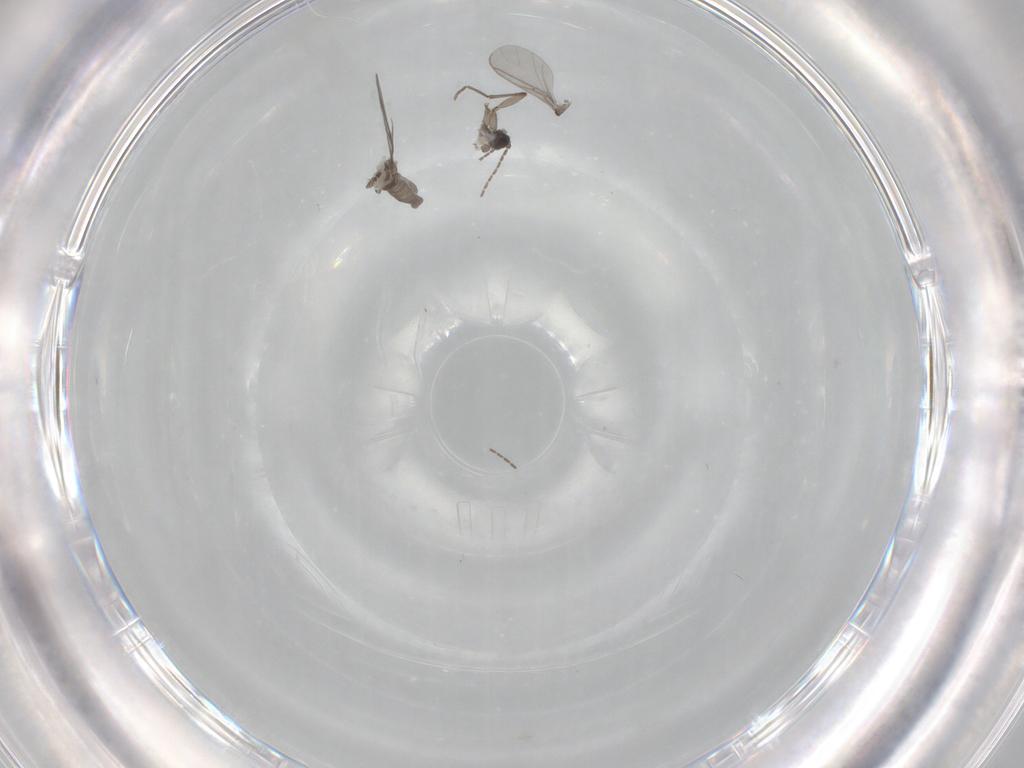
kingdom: Animalia
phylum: Arthropoda
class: Insecta
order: Diptera
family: Sciaridae
